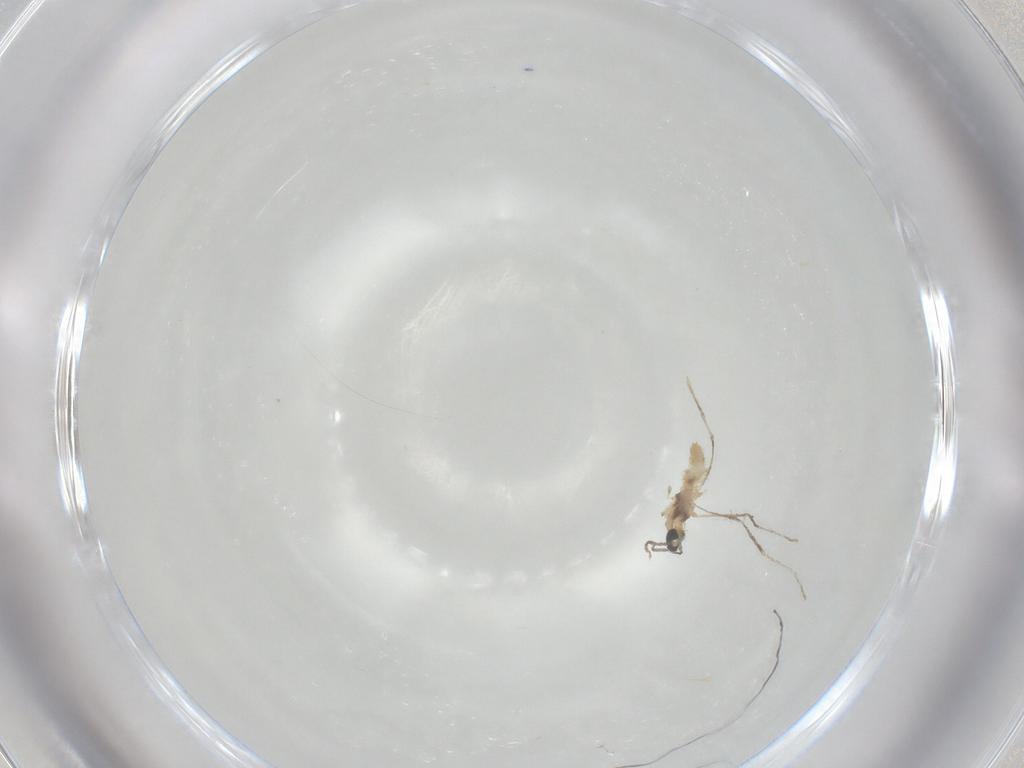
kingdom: Animalia
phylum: Arthropoda
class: Insecta
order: Diptera
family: Cecidomyiidae
